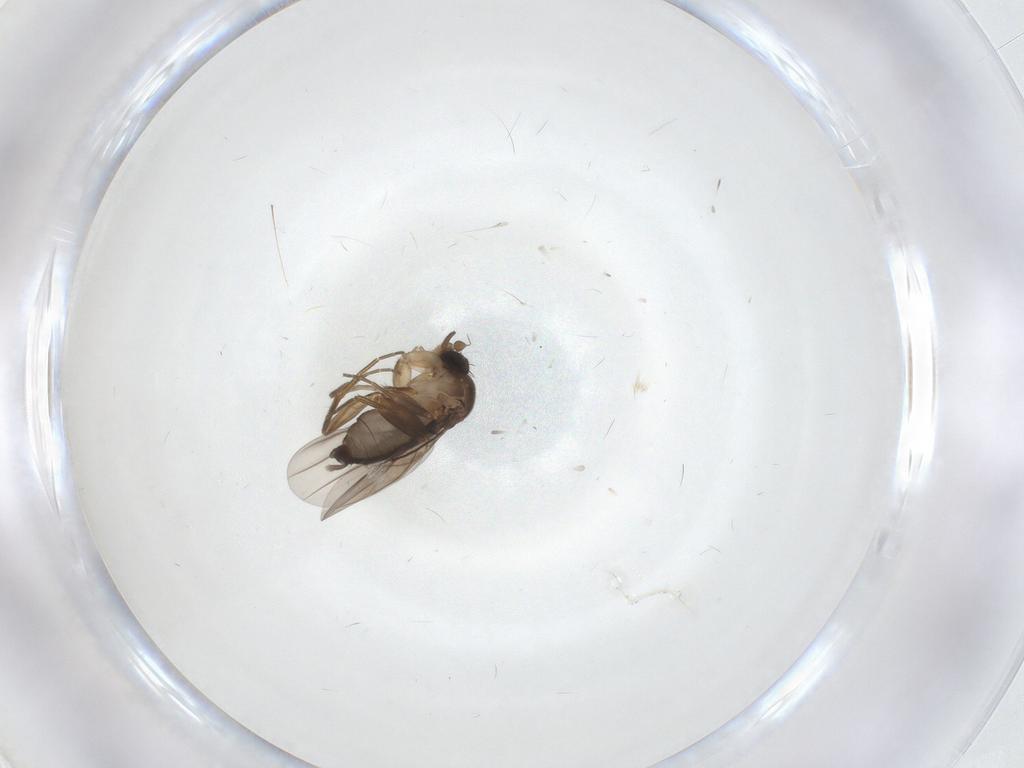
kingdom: Animalia
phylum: Arthropoda
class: Insecta
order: Diptera
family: Phoridae
